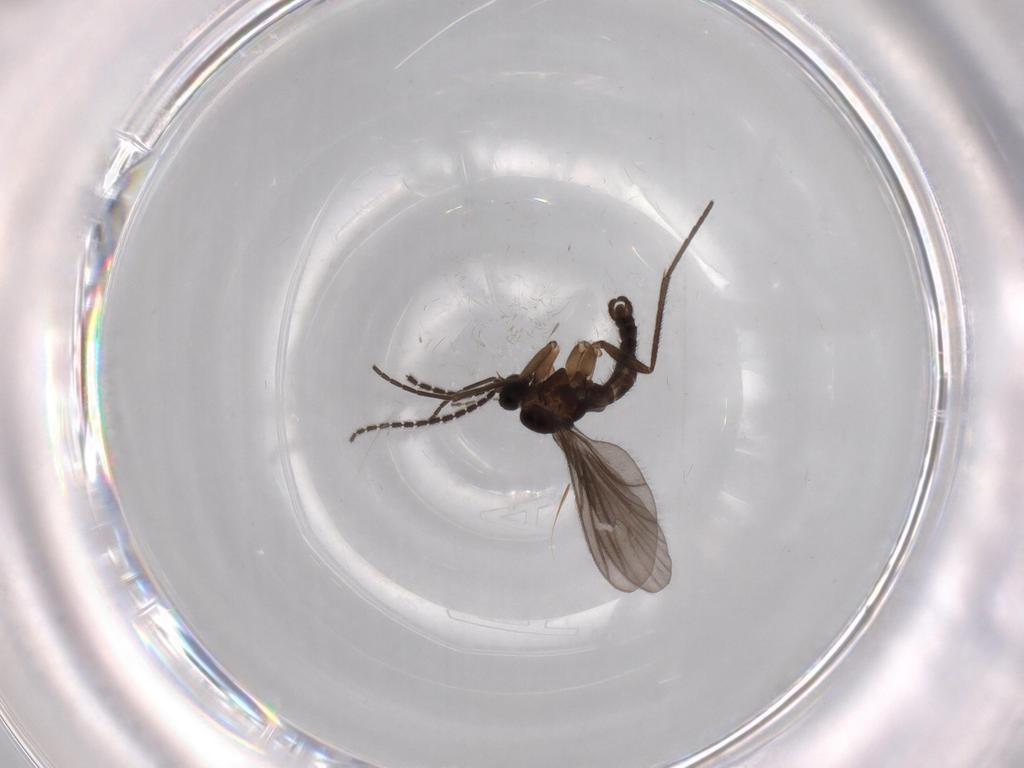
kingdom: Animalia
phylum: Arthropoda
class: Insecta
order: Diptera
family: Sciaridae
